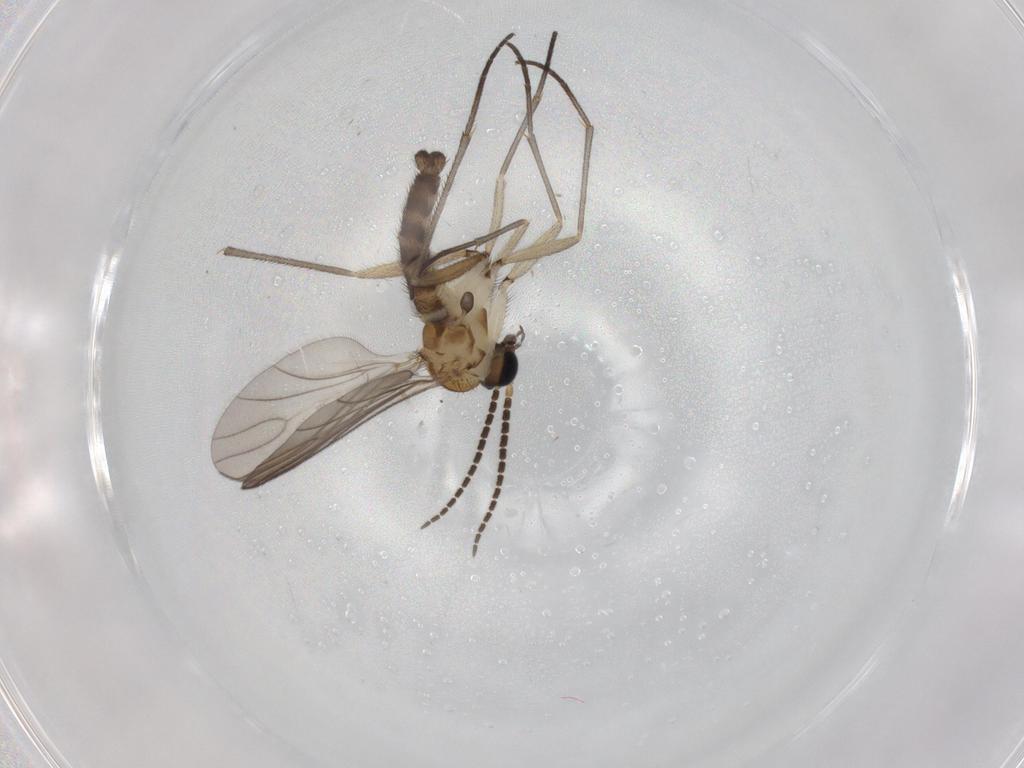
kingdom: Animalia
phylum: Arthropoda
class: Insecta
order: Diptera
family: Sciaridae
